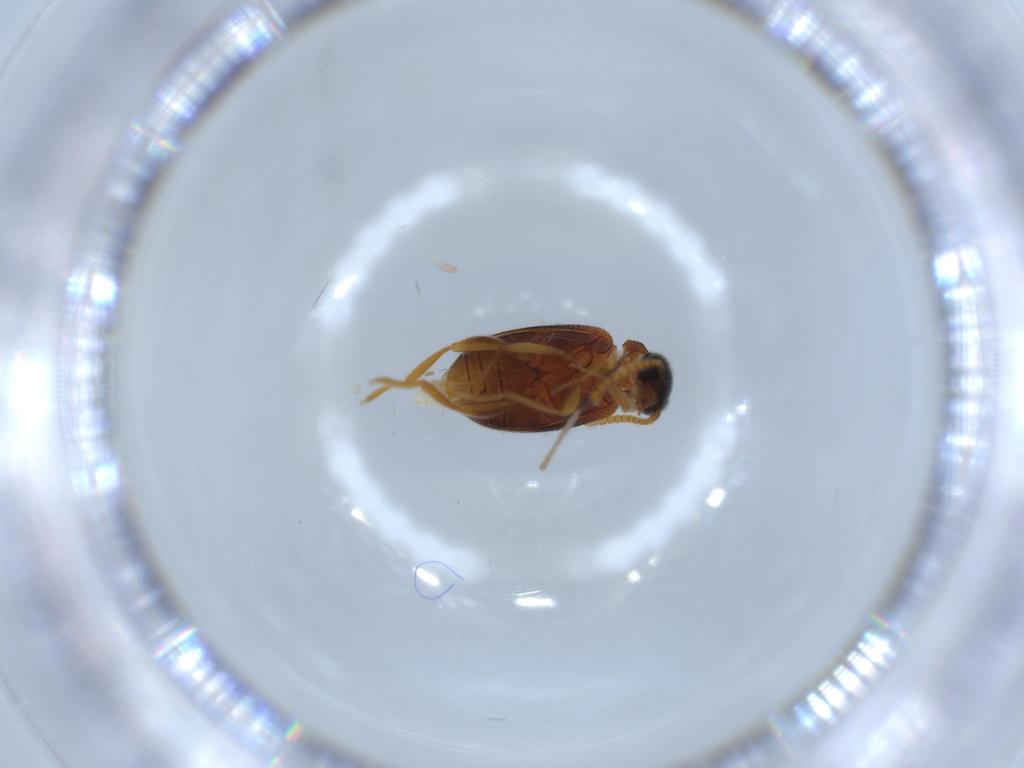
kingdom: Animalia
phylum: Arthropoda
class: Insecta
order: Coleoptera
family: Aderidae
